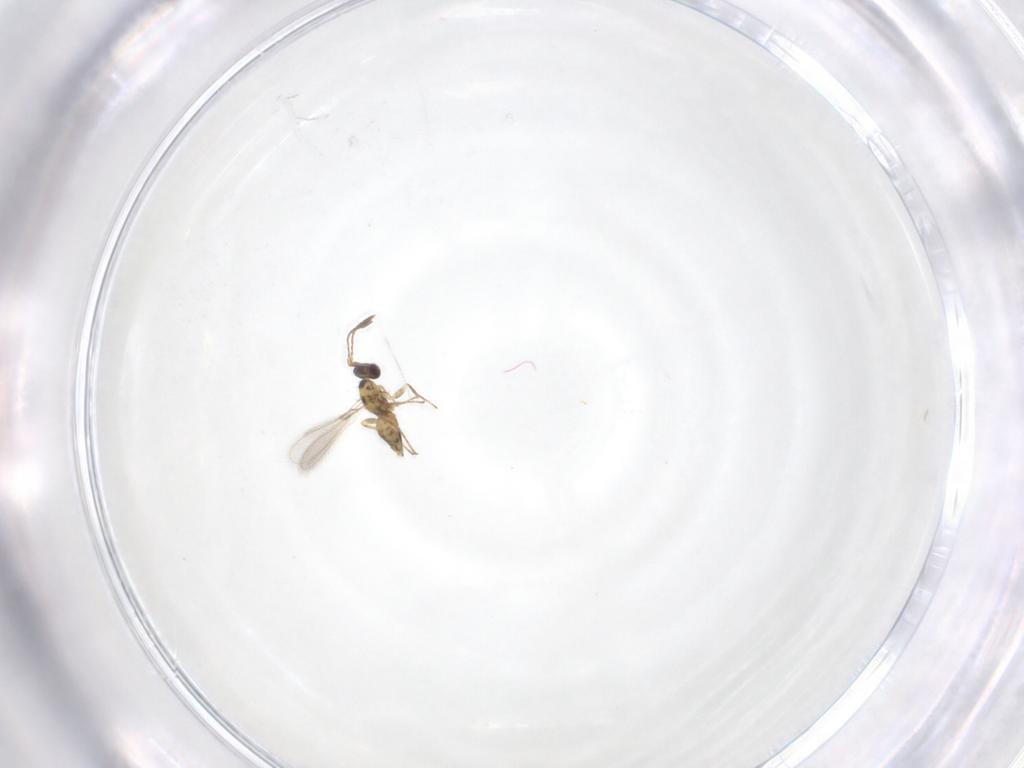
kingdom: Animalia
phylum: Arthropoda
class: Insecta
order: Hymenoptera
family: Mymaridae
